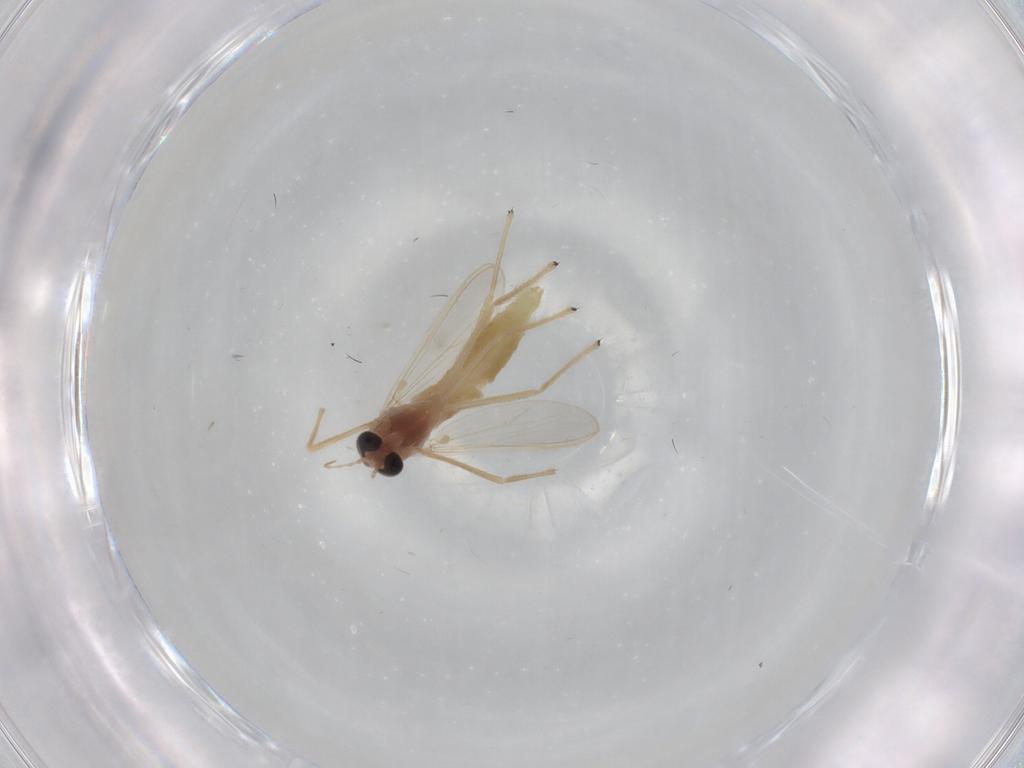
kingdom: Animalia
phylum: Arthropoda
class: Insecta
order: Diptera
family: Chironomidae
